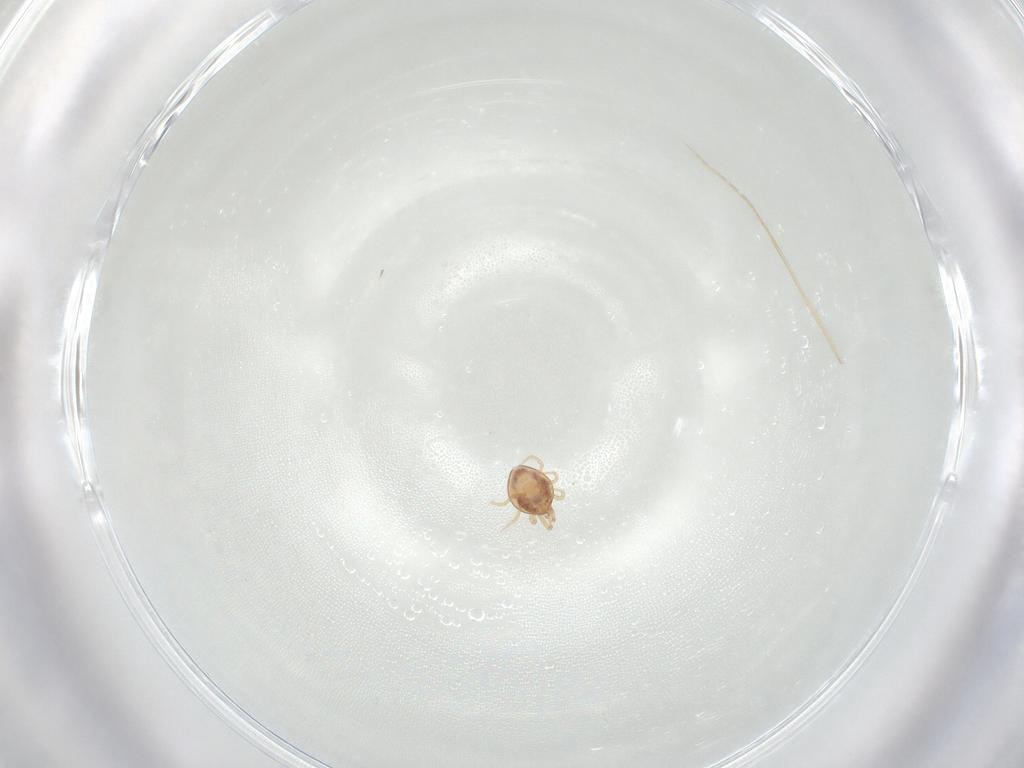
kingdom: Animalia
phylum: Arthropoda
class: Arachnida
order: Mesostigmata
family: Phytoseiidae
